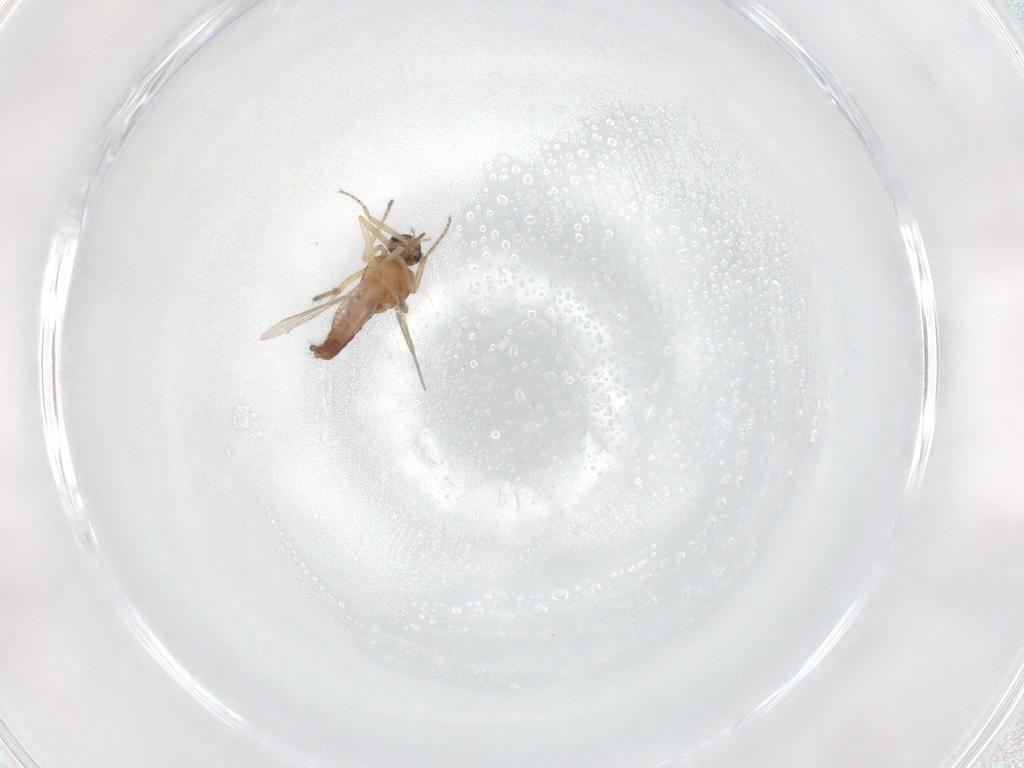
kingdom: Animalia
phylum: Arthropoda
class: Insecta
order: Diptera
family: Ceratopogonidae
